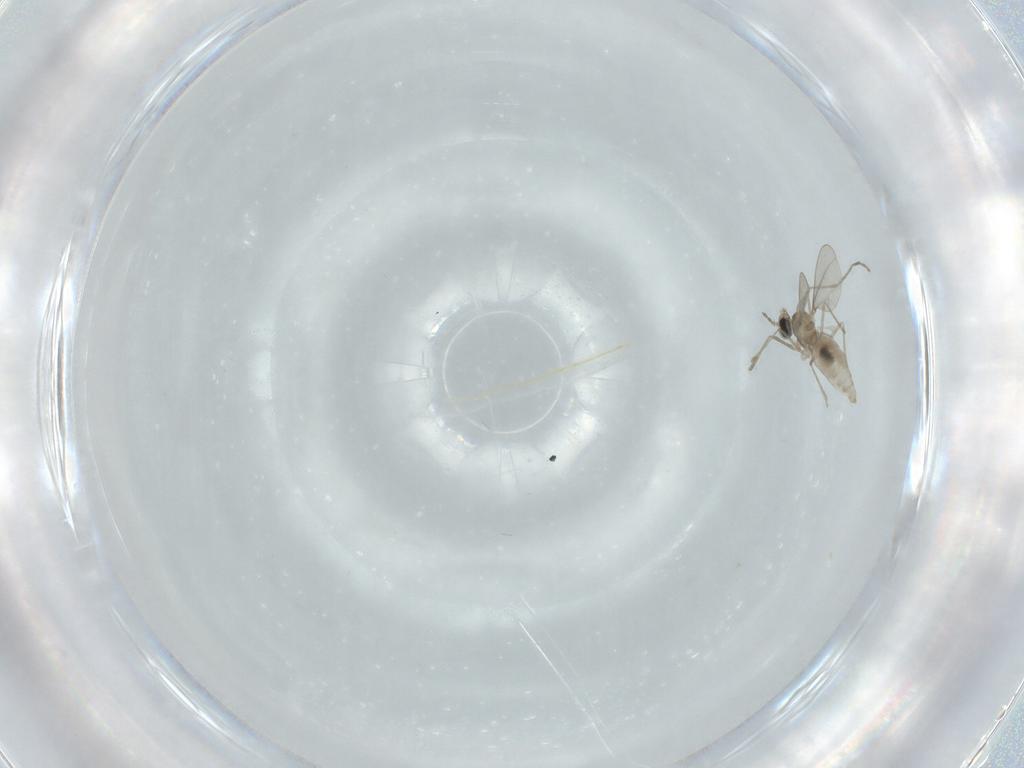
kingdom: Animalia
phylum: Arthropoda
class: Insecta
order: Diptera
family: Cecidomyiidae
